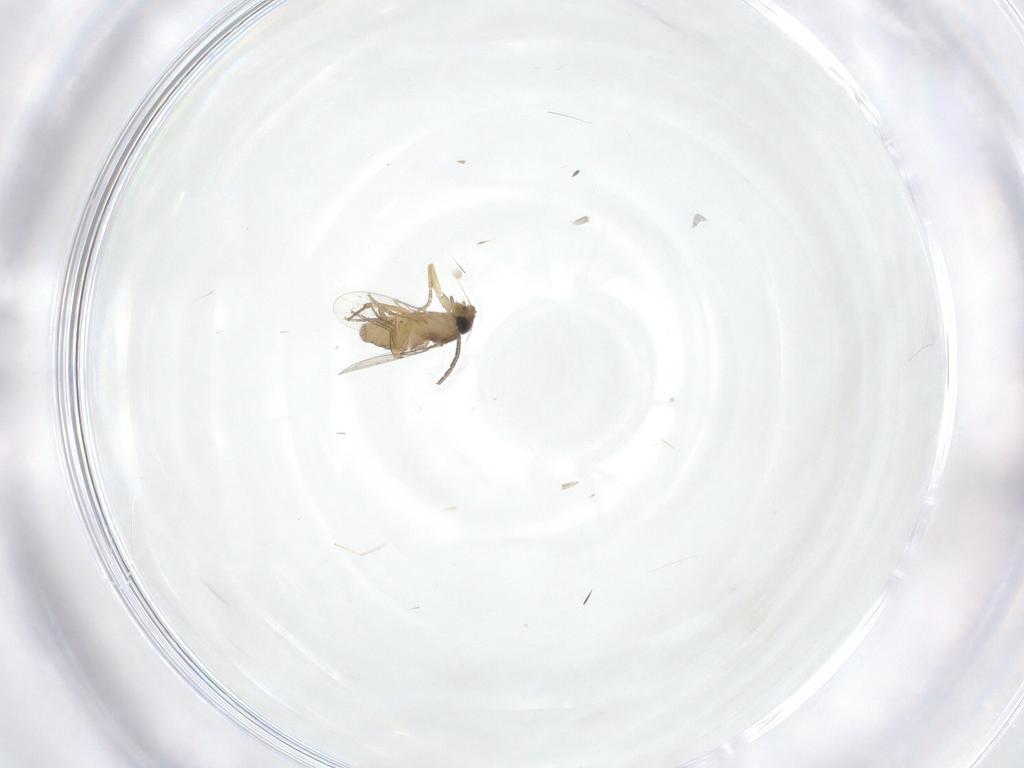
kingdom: Animalia
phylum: Arthropoda
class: Insecta
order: Diptera
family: Sciaridae
